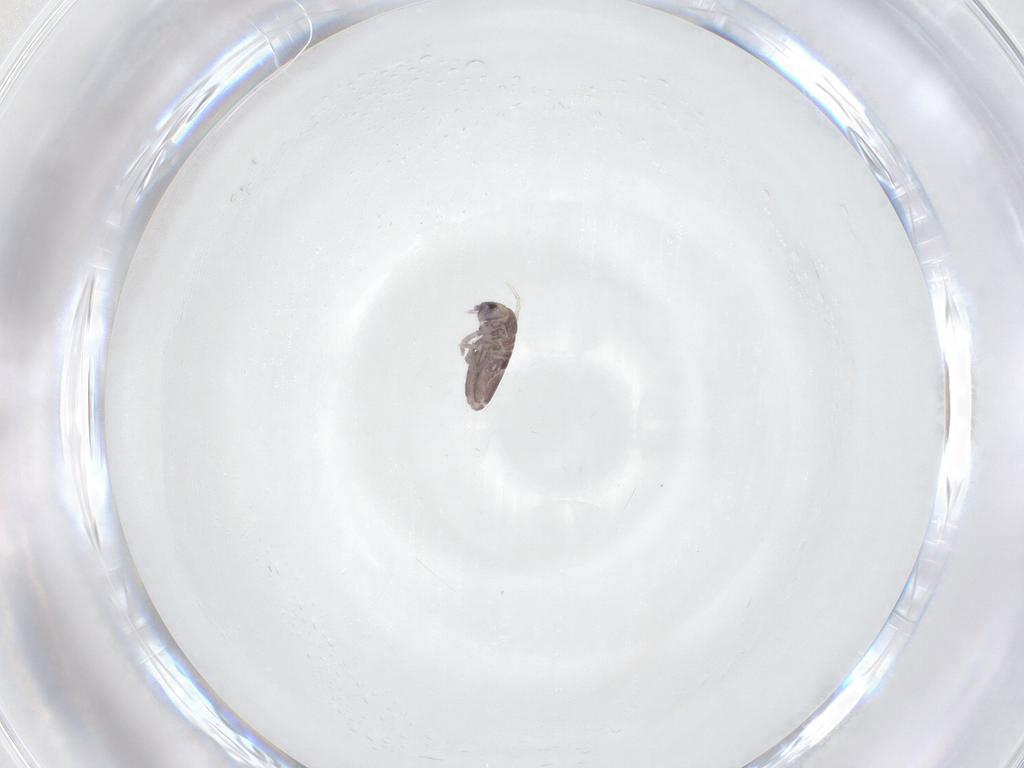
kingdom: Animalia
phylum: Arthropoda
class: Collembola
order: Entomobryomorpha
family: Entomobryidae
